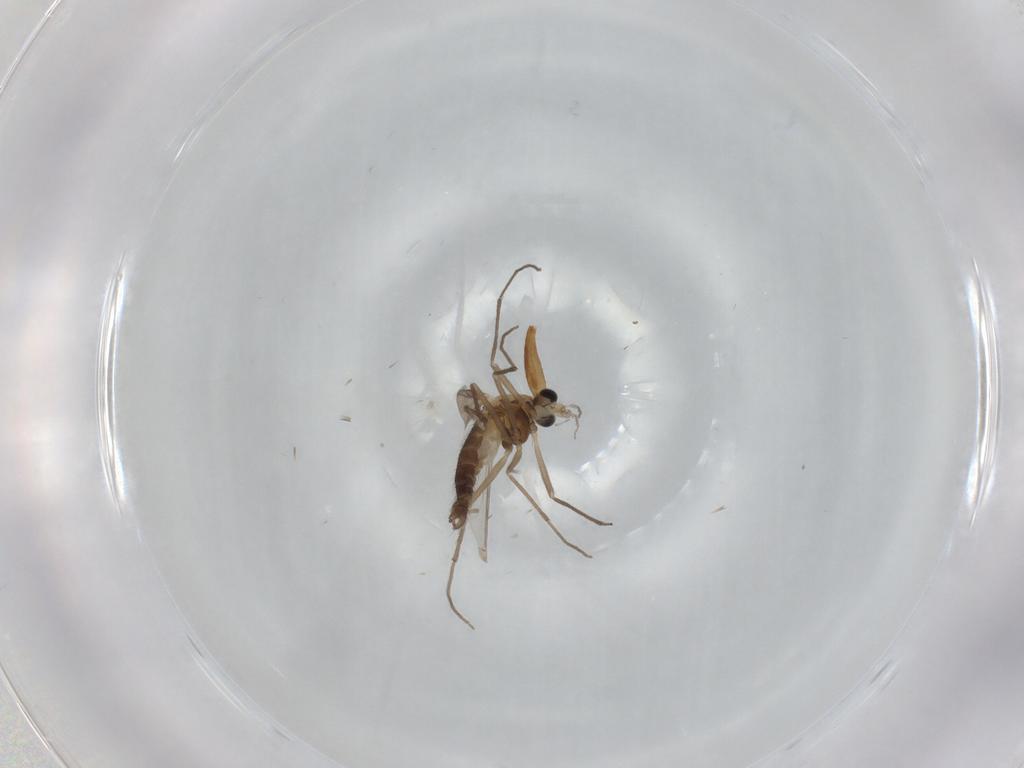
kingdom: Animalia
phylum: Arthropoda
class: Insecta
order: Diptera
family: Chironomidae
